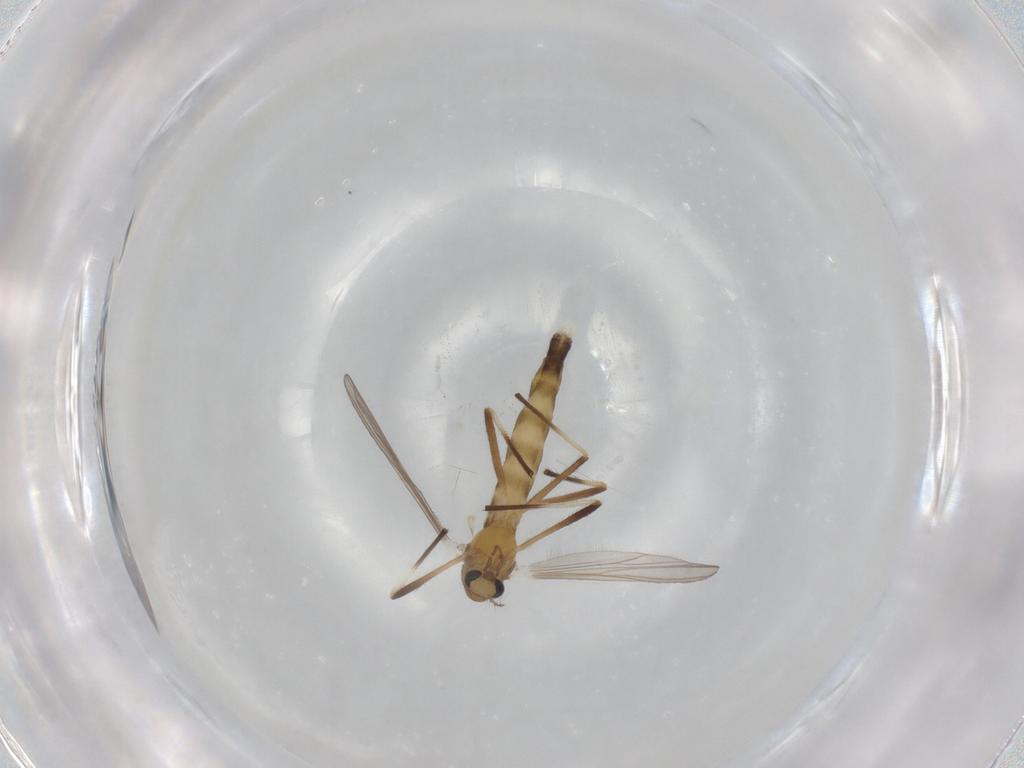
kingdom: Animalia
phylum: Arthropoda
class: Insecta
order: Diptera
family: Chironomidae
